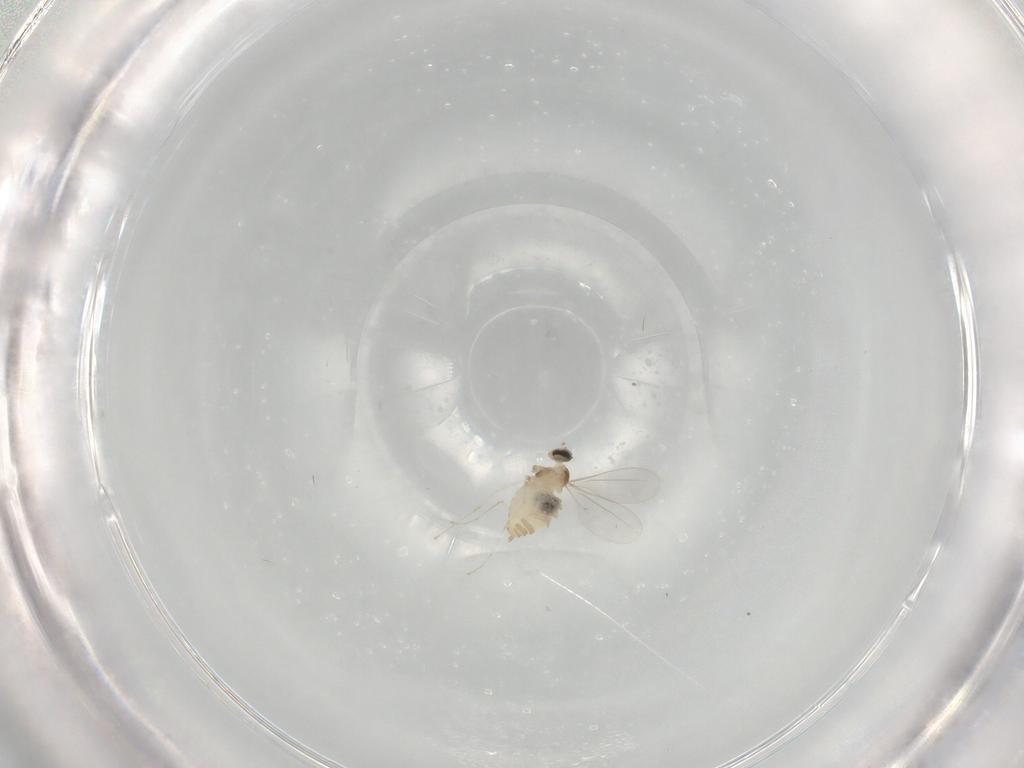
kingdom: Animalia
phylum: Arthropoda
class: Insecta
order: Diptera
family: Cecidomyiidae
